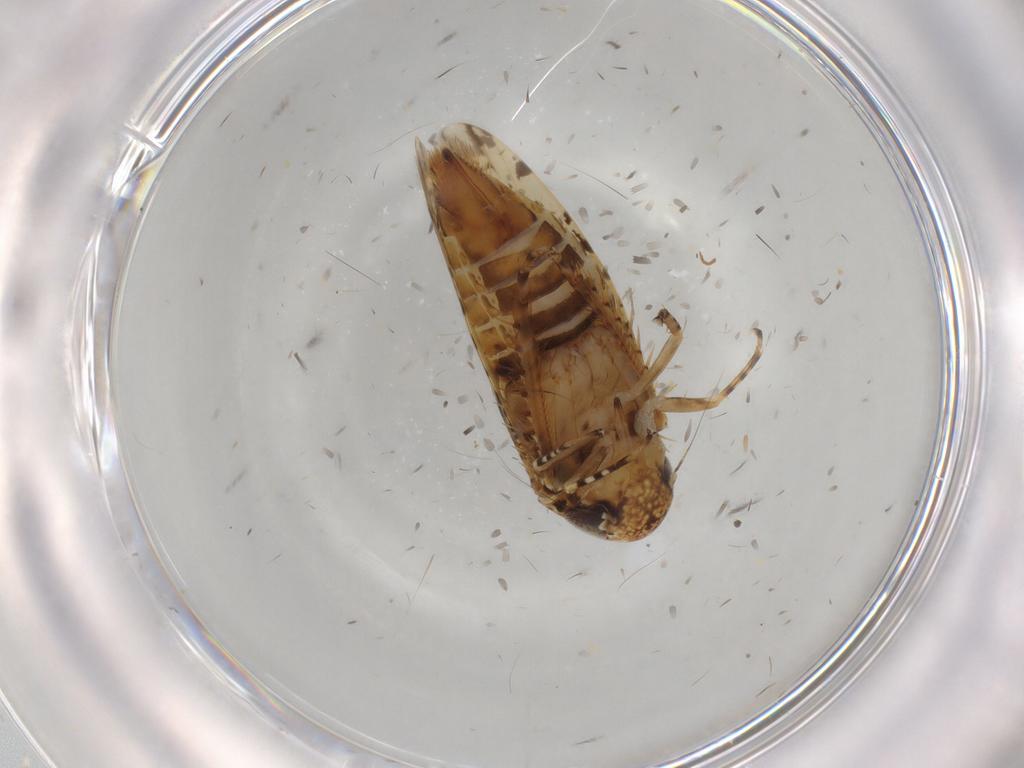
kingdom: Animalia
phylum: Arthropoda
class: Insecta
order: Hemiptera
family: Cicadellidae
